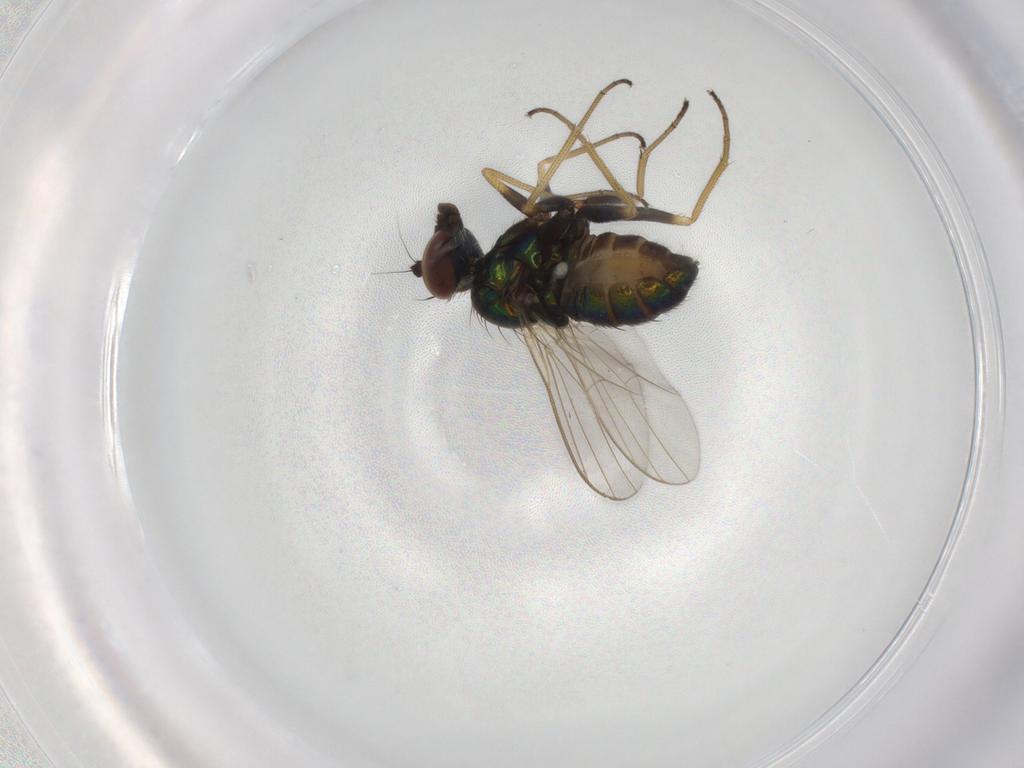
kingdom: Animalia
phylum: Arthropoda
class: Insecta
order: Diptera
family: Dolichopodidae
